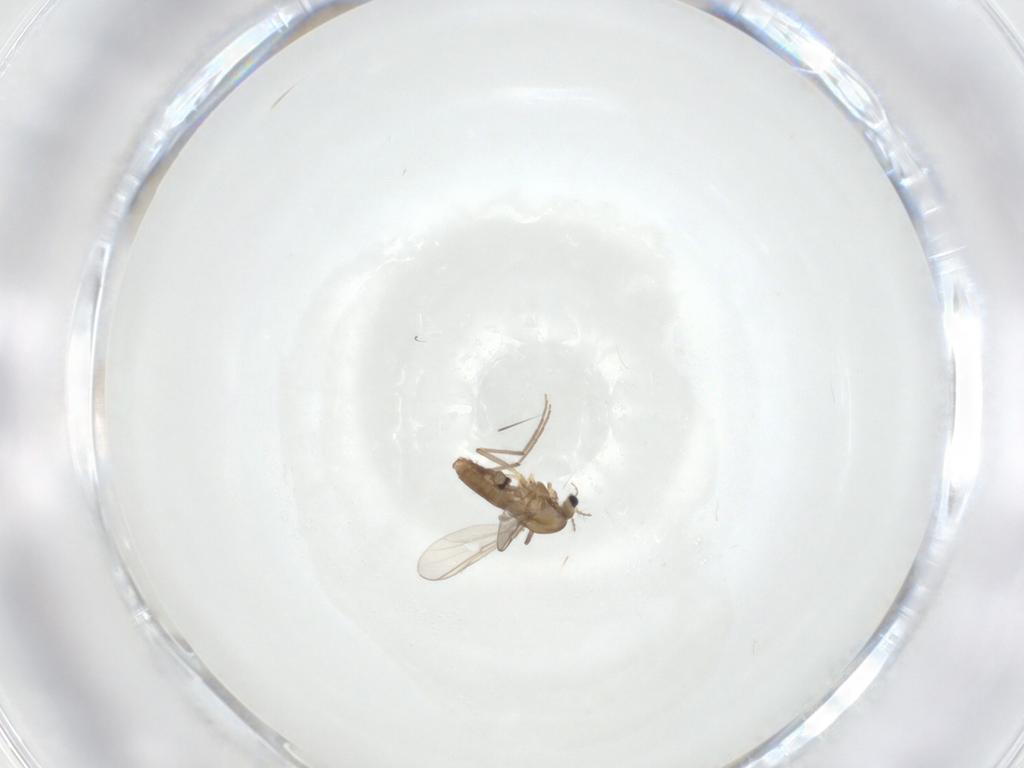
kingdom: Animalia
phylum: Arthropoda
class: Insecta
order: Diptera
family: Chironomidae
